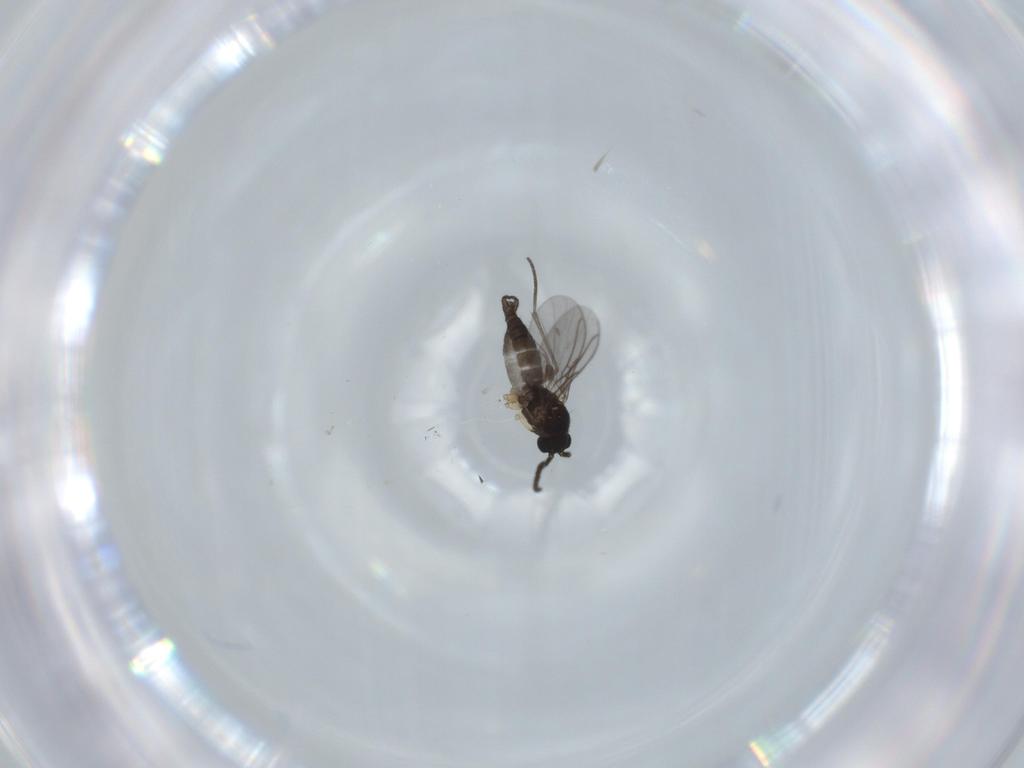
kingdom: Animalia
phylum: Arthropoda
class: Insecta
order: Diptera
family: Sciaridae
